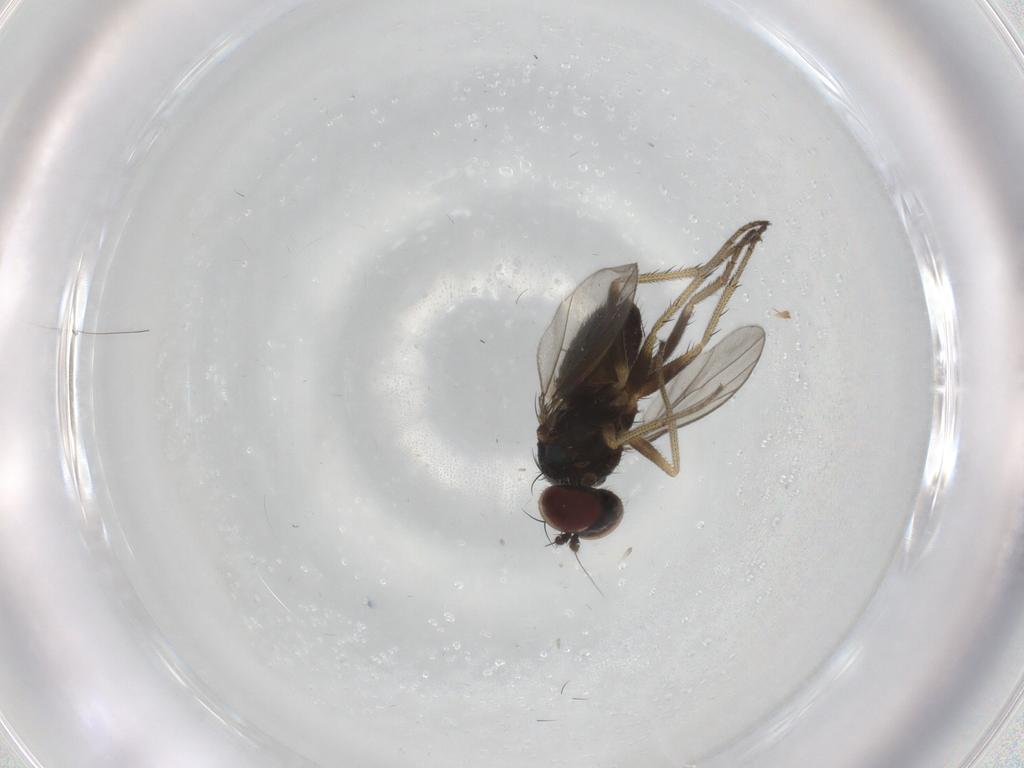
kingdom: Animalia
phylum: Arthropoda
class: Insecta
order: Diptera
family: Dolichopodidae
